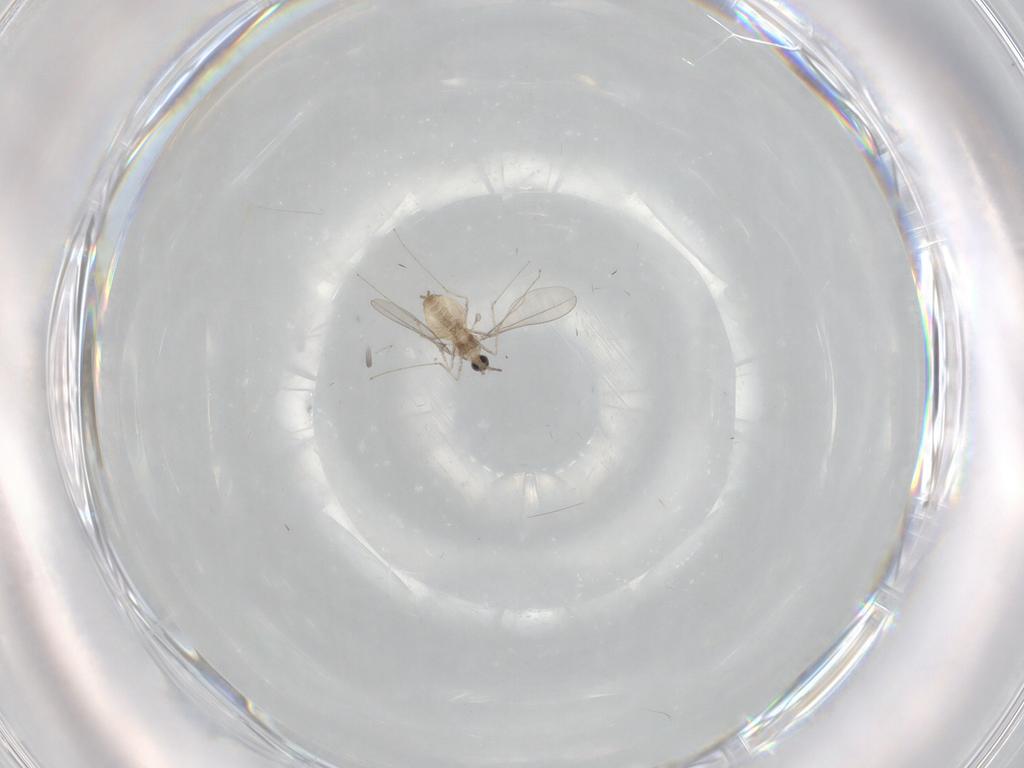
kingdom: Animalia
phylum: Arthropoda
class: Insecta
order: Diptera
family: Cecidomyiidae
